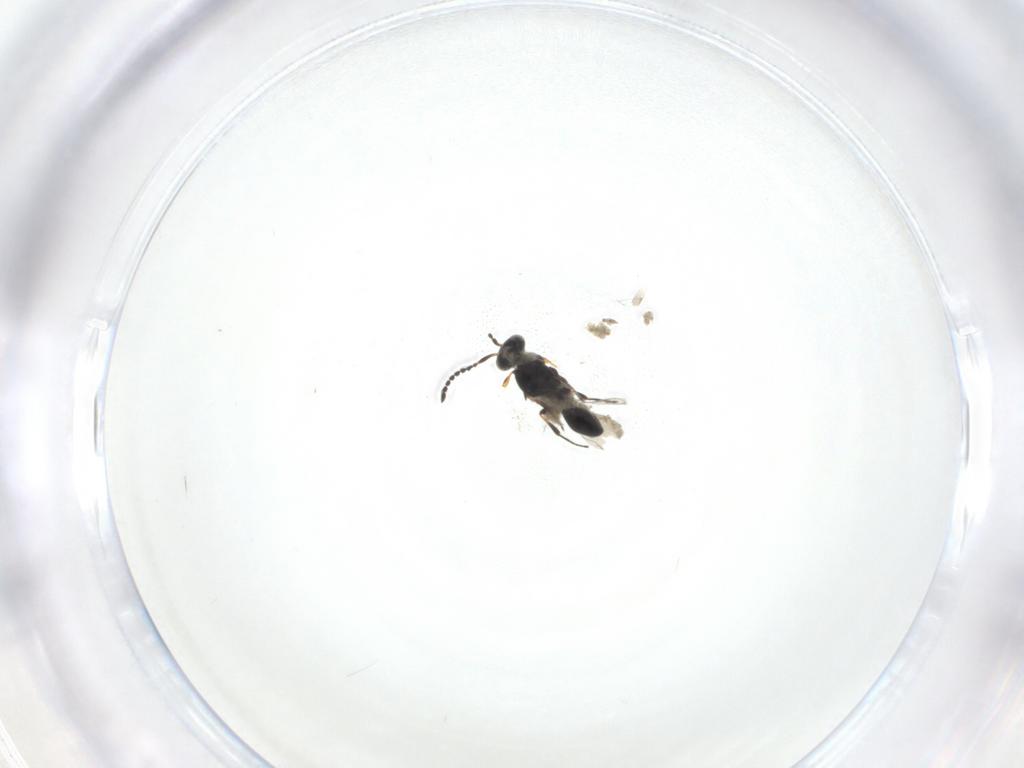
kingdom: Animalia
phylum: Arthropoda
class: Insecta
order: Hymenoptera
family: Platygastridae
